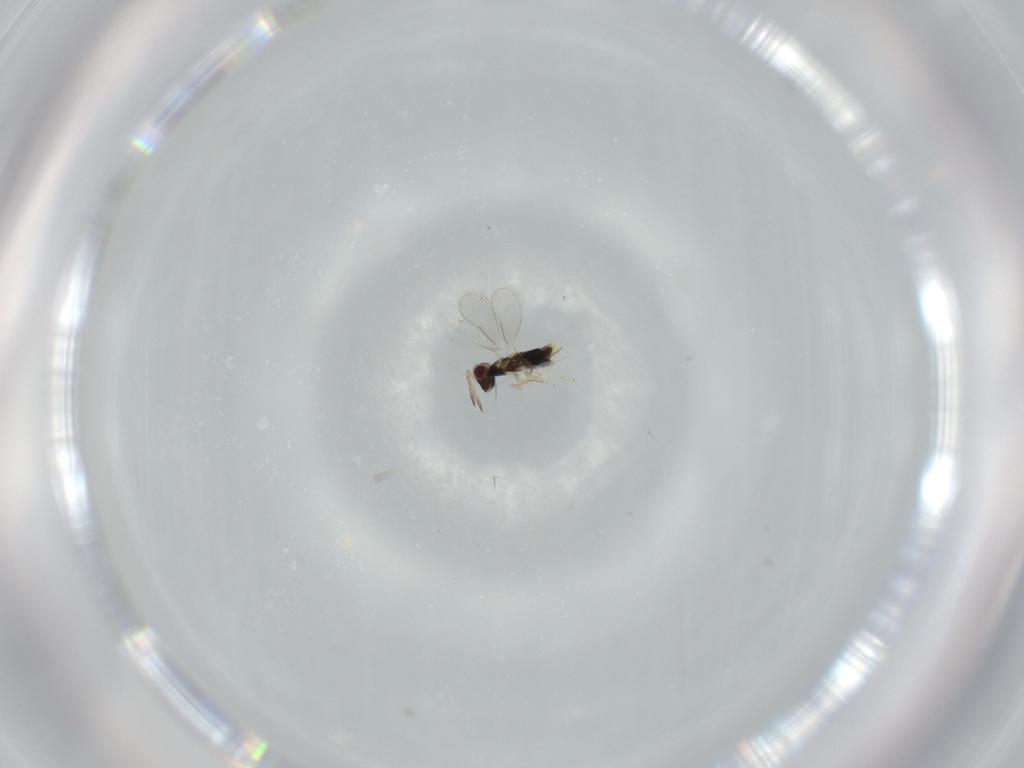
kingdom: Animalia
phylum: Arthropoda
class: Insecta
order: Hymenoptera
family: Aphelinidae
